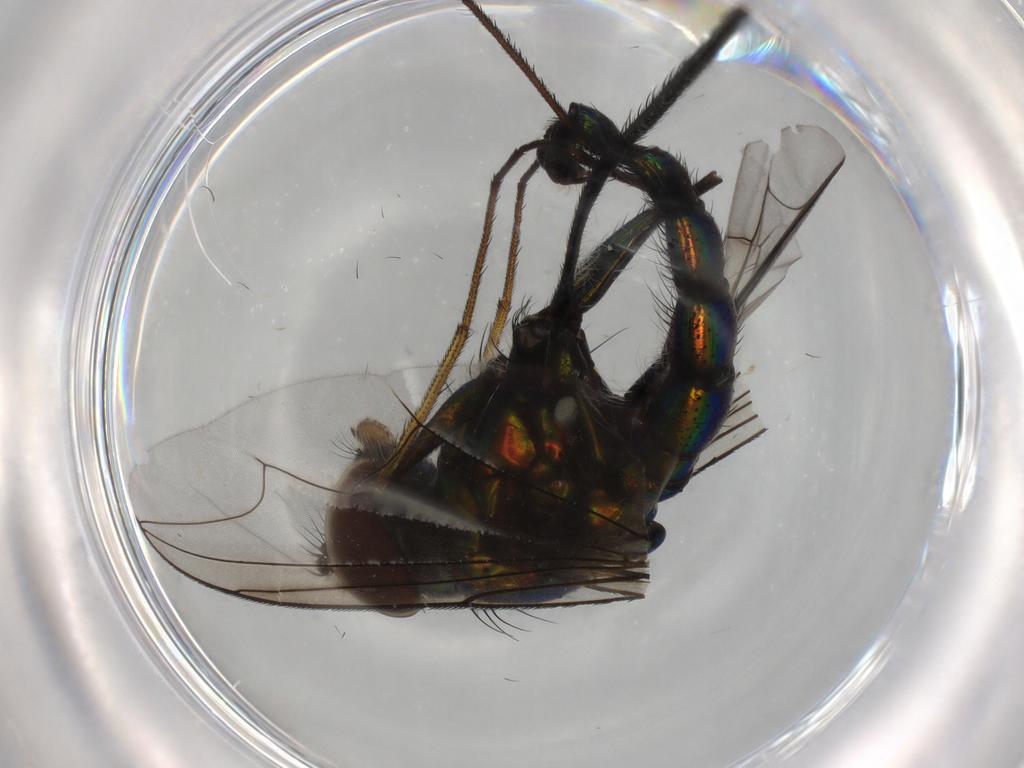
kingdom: Animalia
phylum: Arthropoda
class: Insecta
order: Diptera
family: Dolichopodidae
